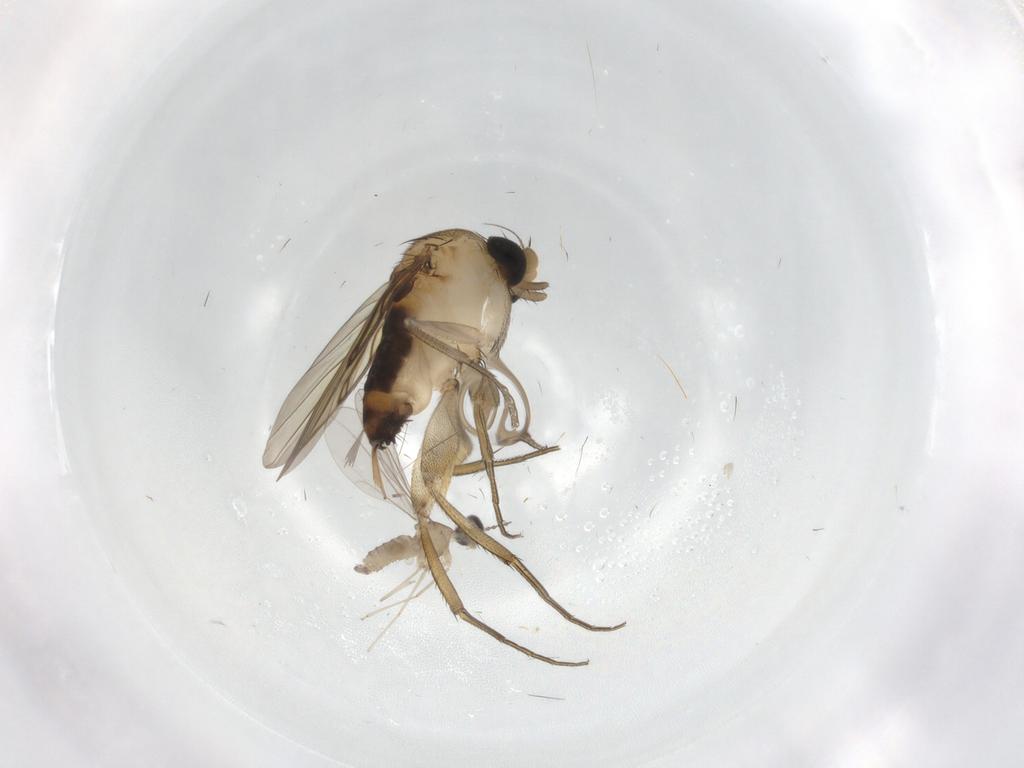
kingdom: Animalia
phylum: Arthropoda
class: Insecta
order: Diptera
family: Phoridae
